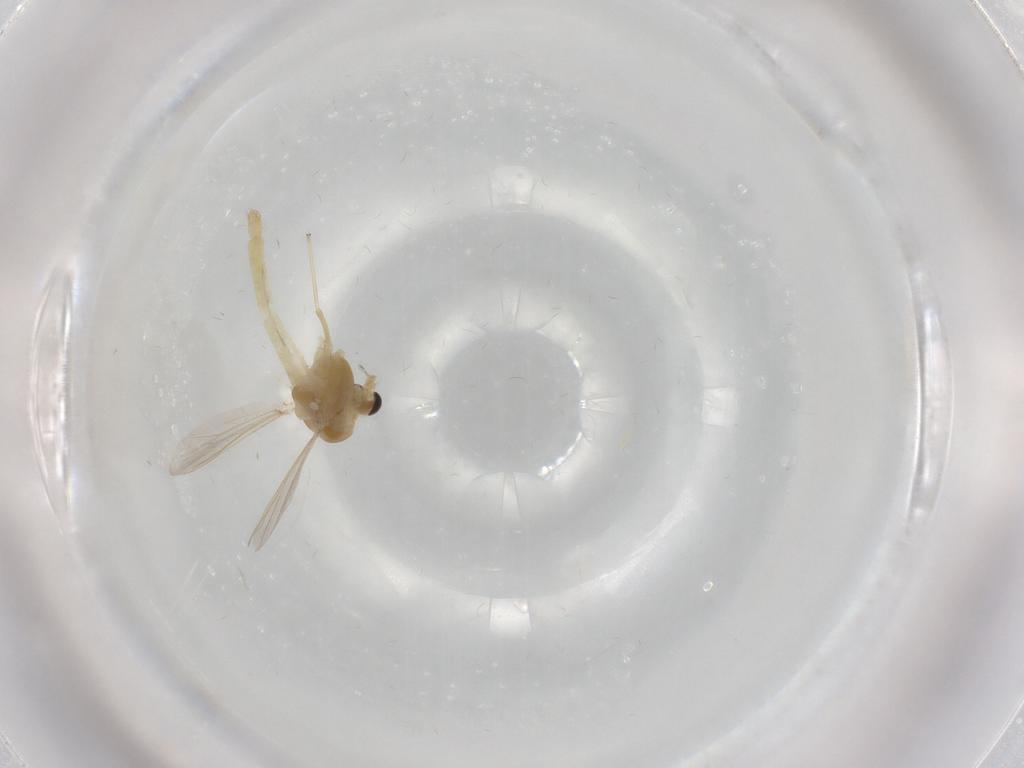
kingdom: Animalia
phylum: Arthropoda
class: Insecta
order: Diptera
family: Chironomidae
